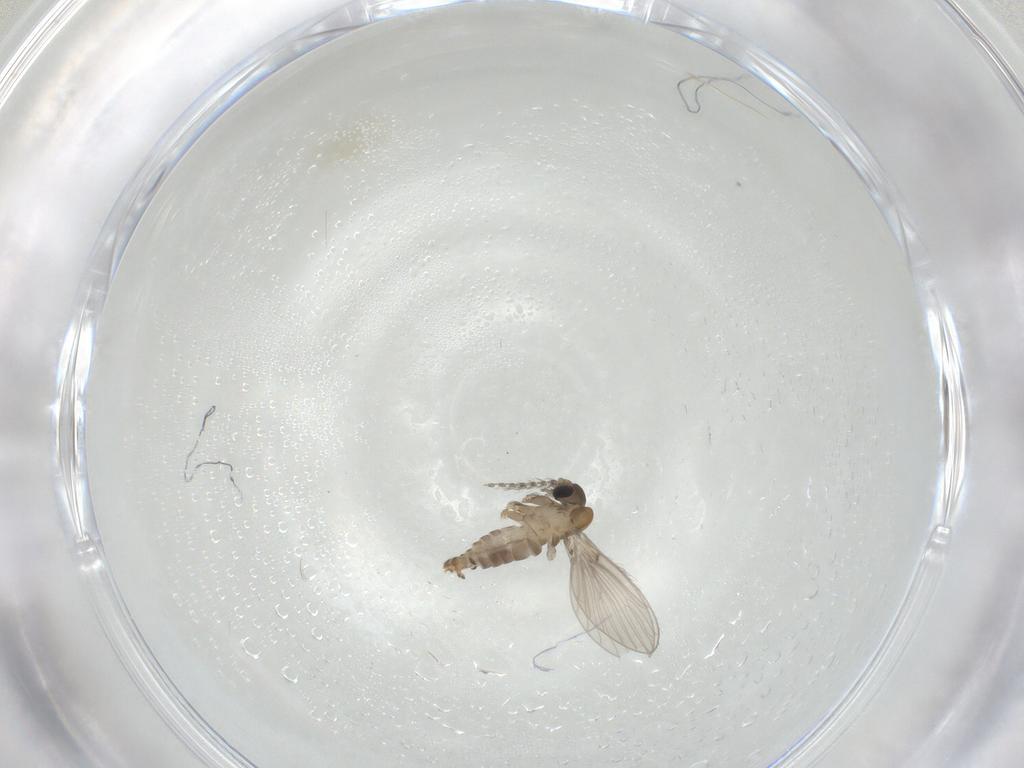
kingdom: Animalia
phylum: Arthropoda
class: Insecta
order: Diptera
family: Psychodidae
